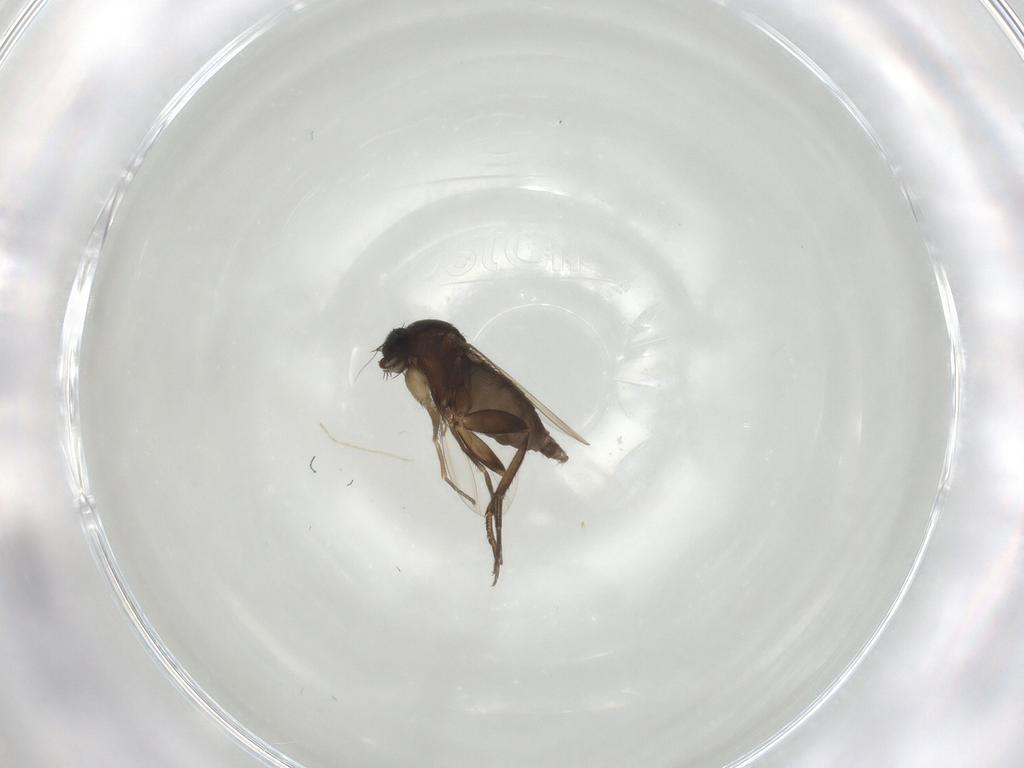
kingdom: Animalia
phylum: Arthropoda
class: Insecta
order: Diptera
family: Phoridae
